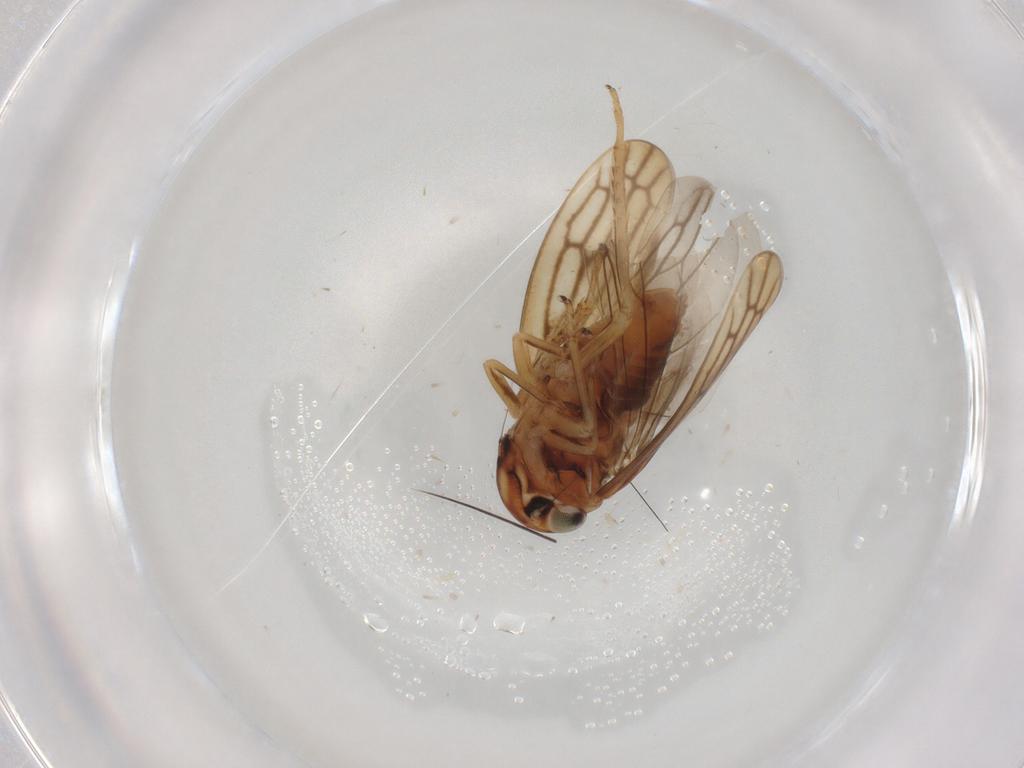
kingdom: Animalia
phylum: Arthropoda
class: Insecta
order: Hemiptera
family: Cicadellidae
